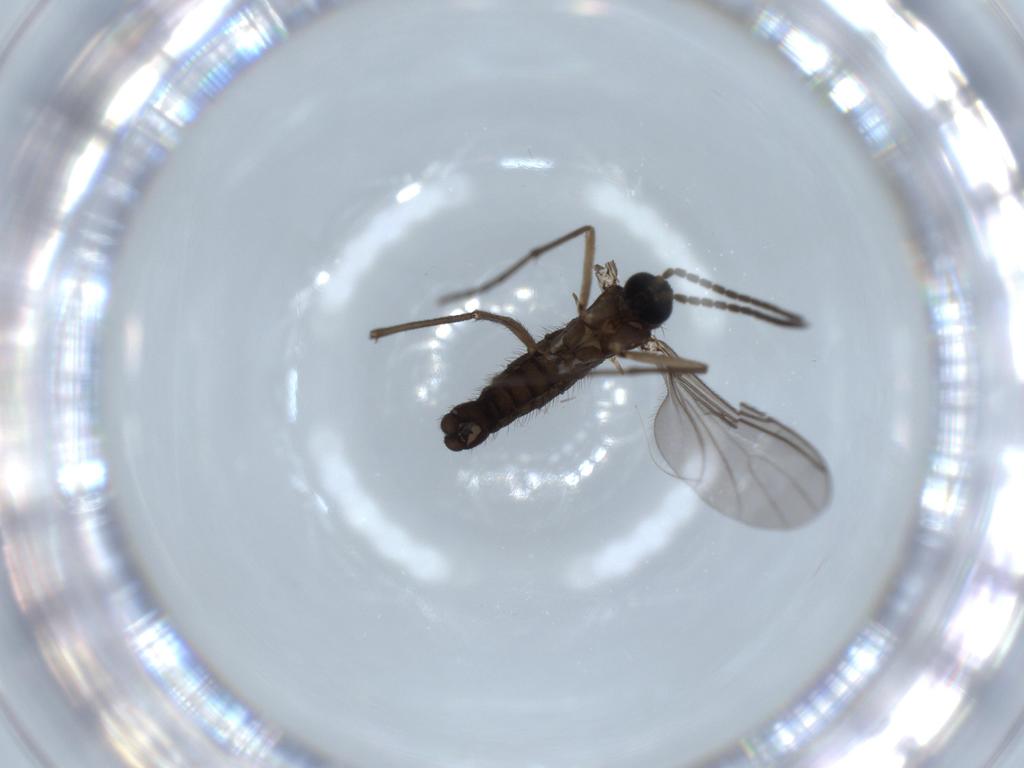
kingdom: Animalia
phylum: Arthropoda
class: Insecta
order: Diptera
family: Sciaridae
